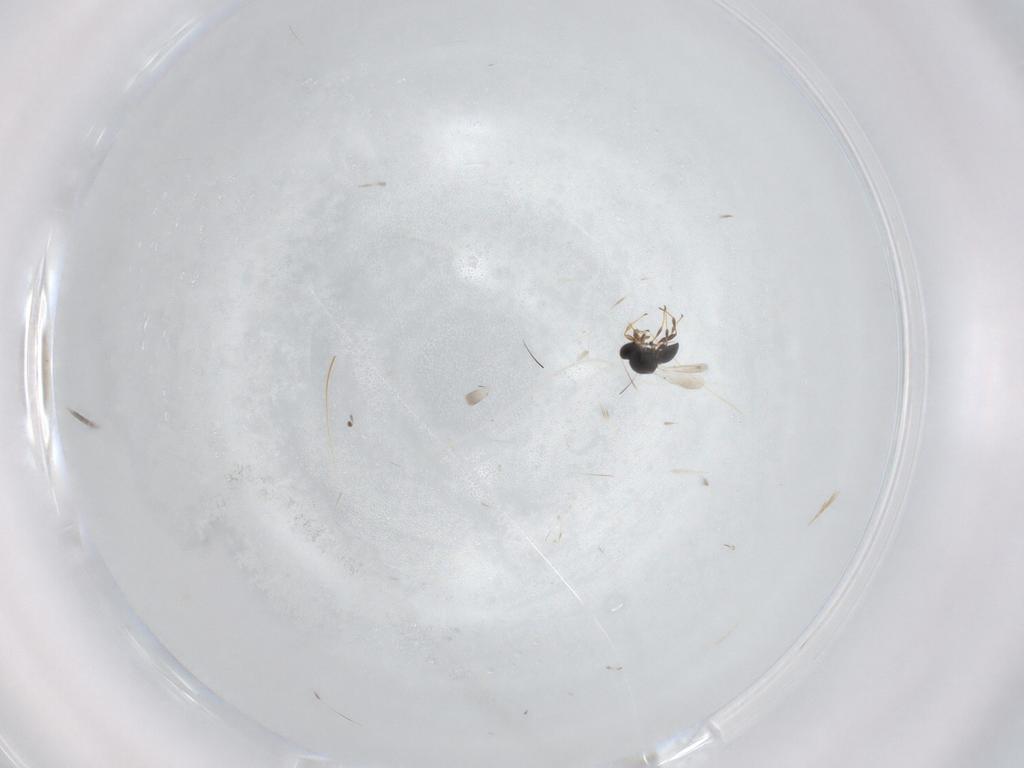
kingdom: Animalia
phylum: Arthropoda
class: Insecta
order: Hymenoptera
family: Platygastridae
